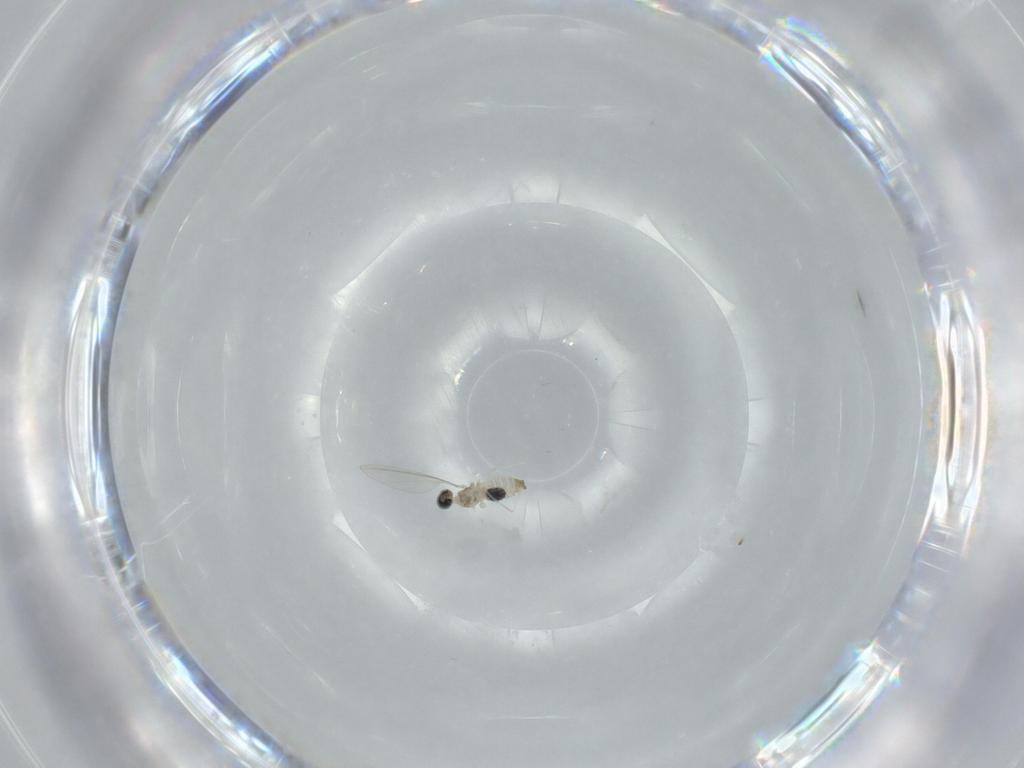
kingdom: Animalia
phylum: Arthropoda
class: Insecta
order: Diptera
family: Cecidomyiidae
